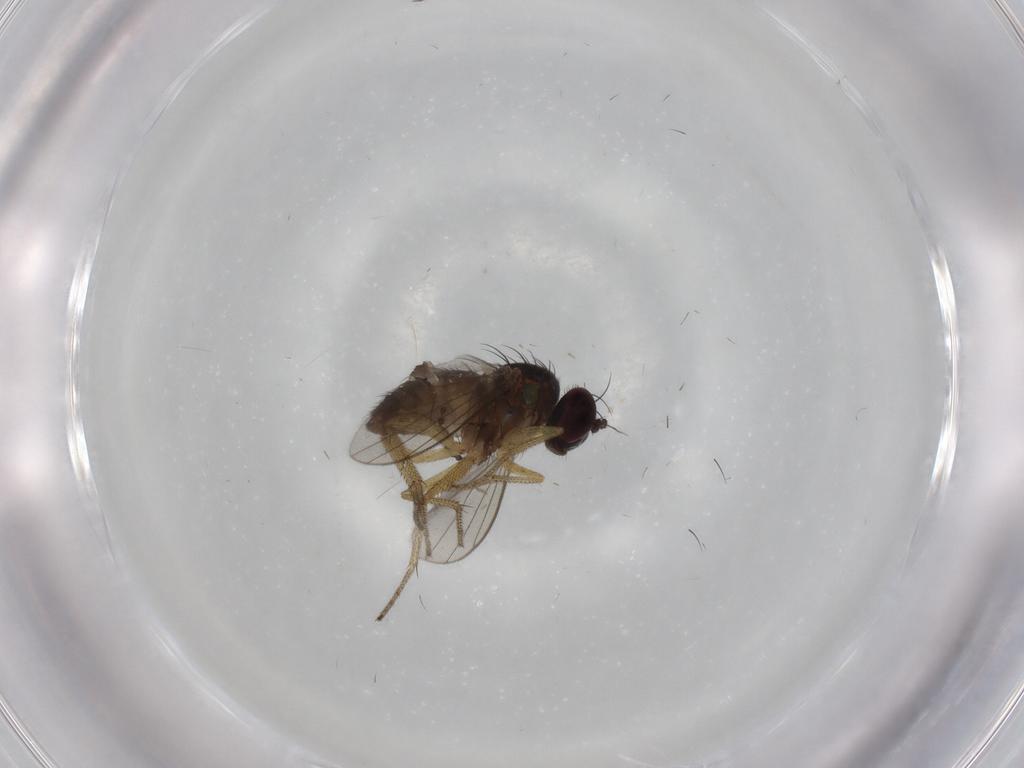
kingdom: Animalia
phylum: Arthropoda
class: Insecta
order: Diptera
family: Dolichopodidae
